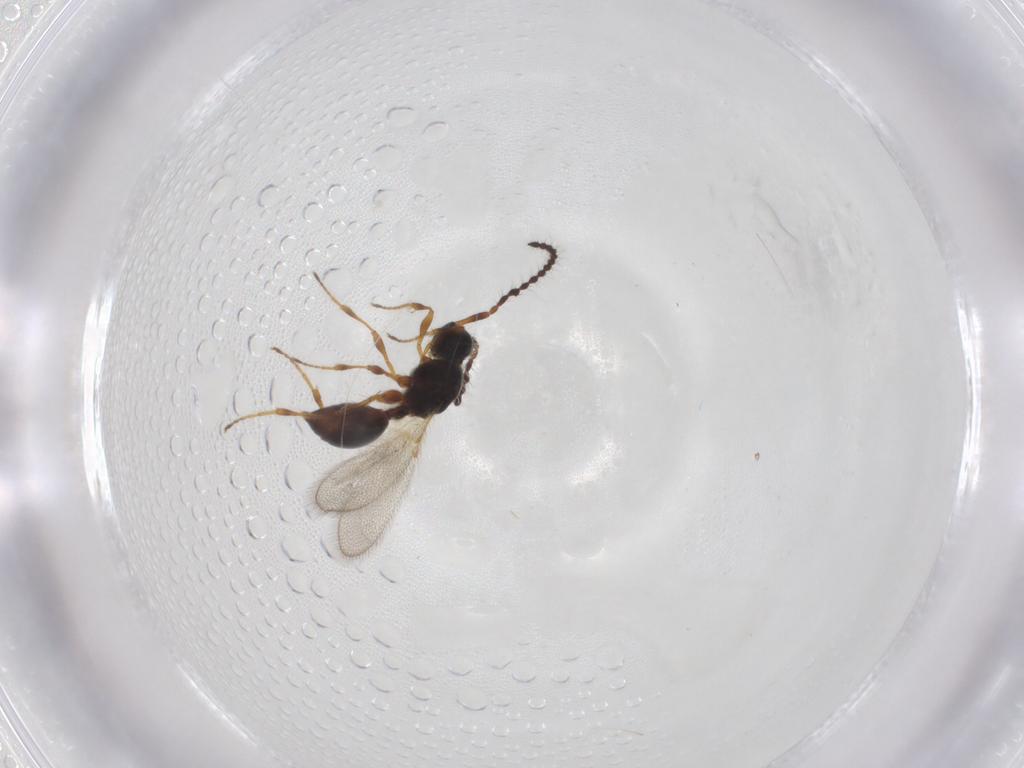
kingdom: Animalia
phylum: Arthropoda
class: Insecta
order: Hymenoptera
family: Diapriidae
